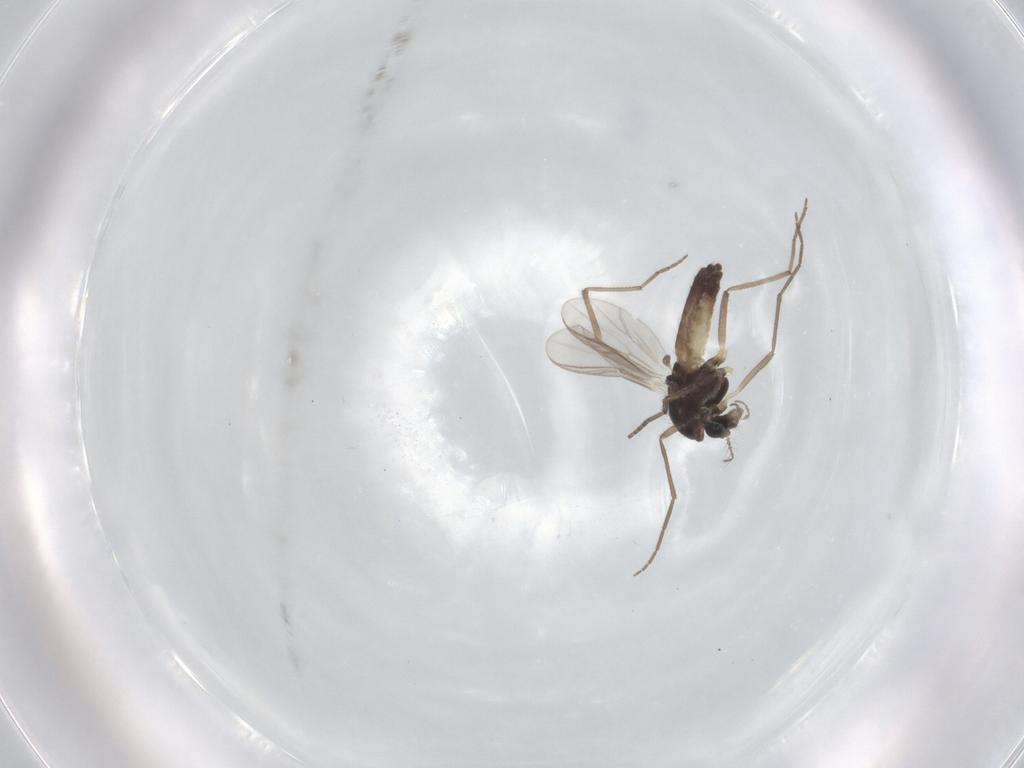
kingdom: Animalia
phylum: Arthropoda
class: Insecta
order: Diptera
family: Chironomidae
